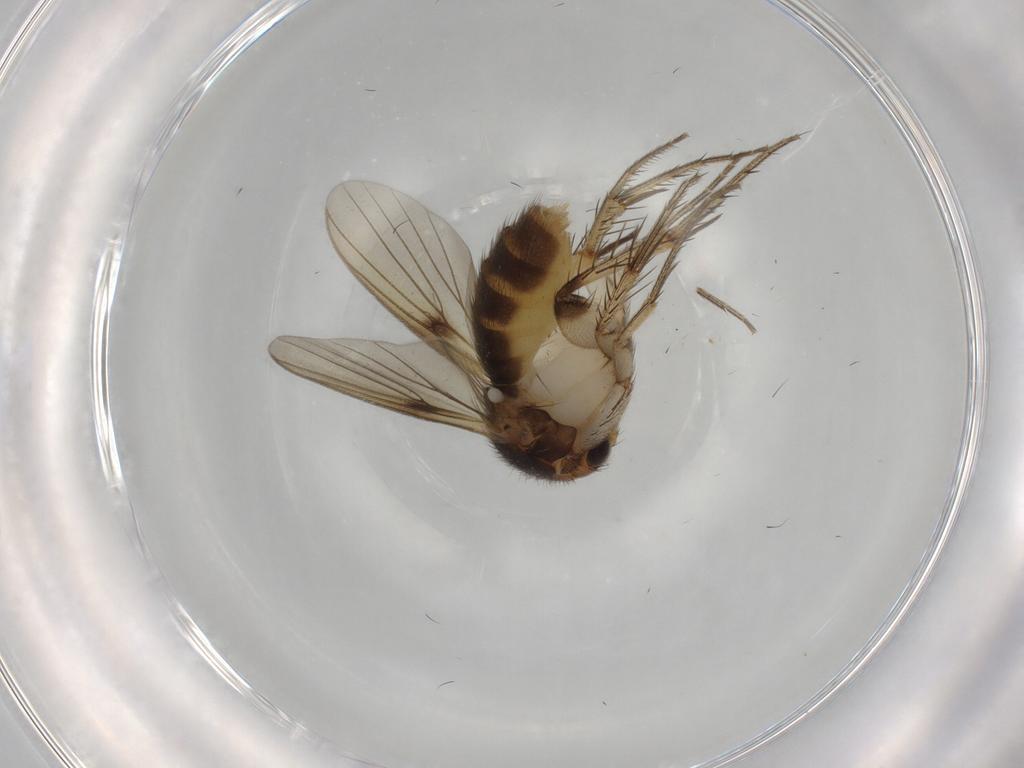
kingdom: Animalia
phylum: Arthropoda
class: Insecta
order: Diptera
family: Mycetophilidae
